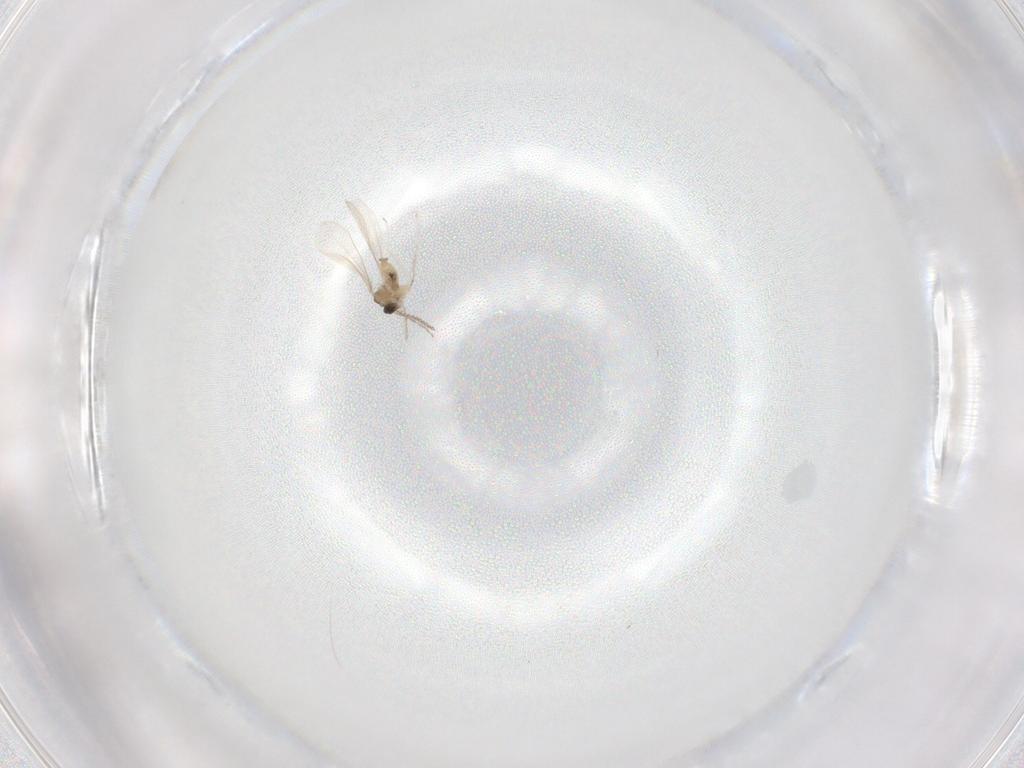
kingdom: Animalia
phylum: Arthropoda
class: Insecta
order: Diptera
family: Cecidomyiidae
